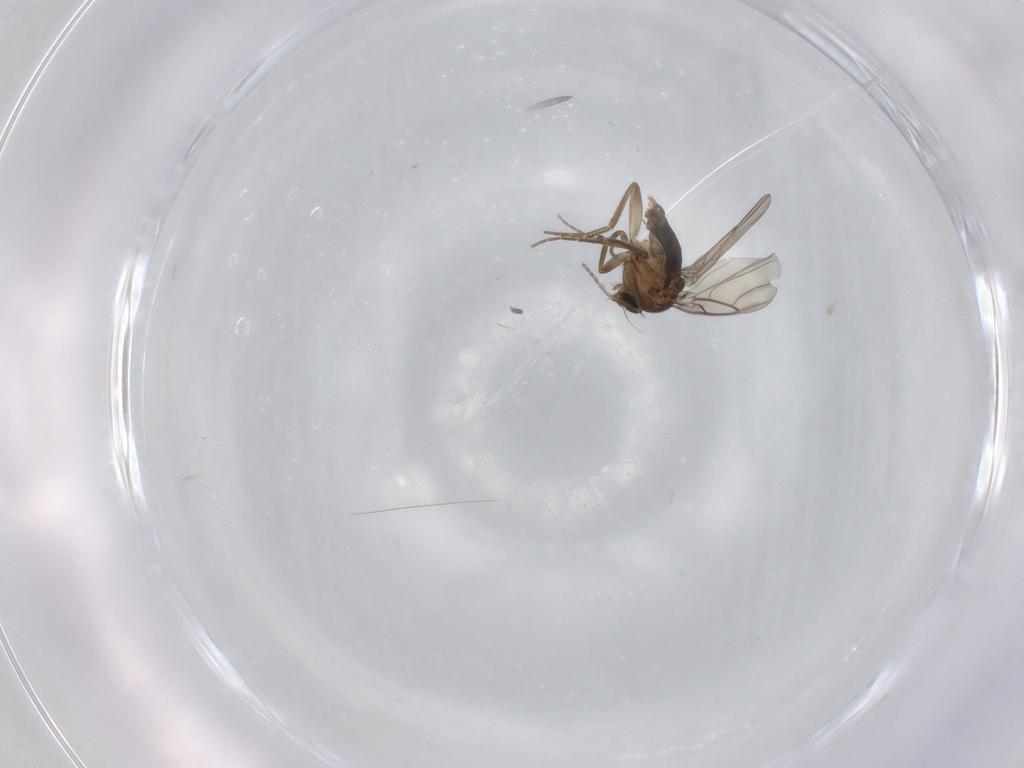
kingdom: Animalia
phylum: Arthropoda
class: Insecta
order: Diptera
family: Phoridae
